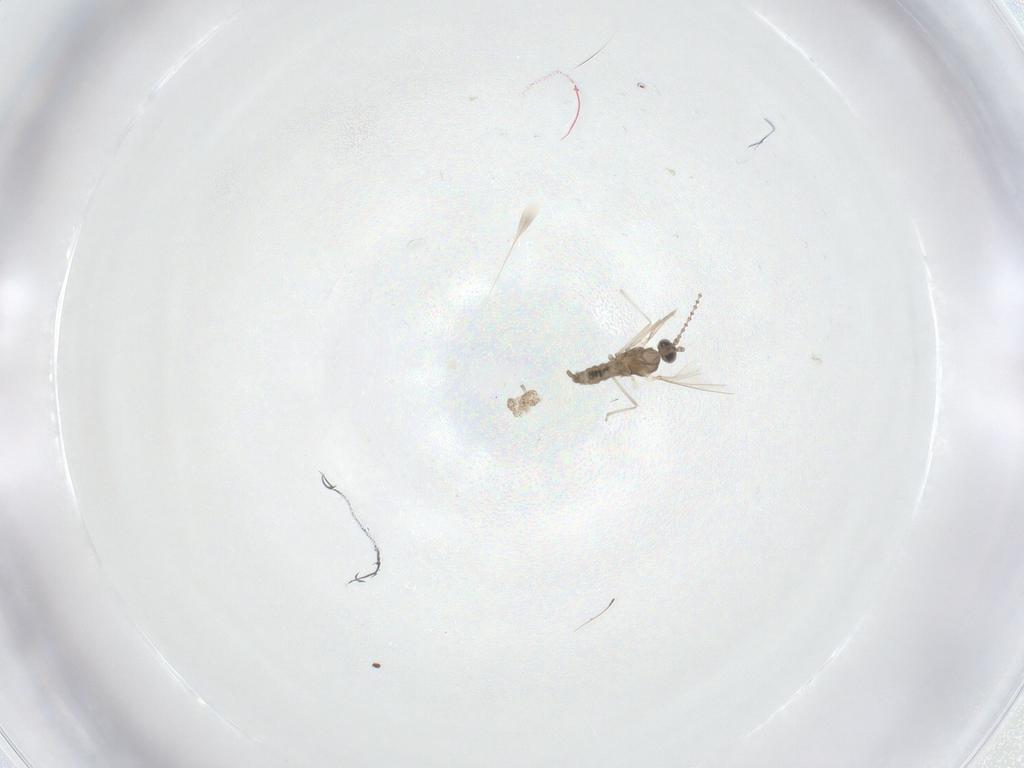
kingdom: Animalia
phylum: Arthropoda
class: Insecta
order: Diptera
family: Cecidomyiidae
